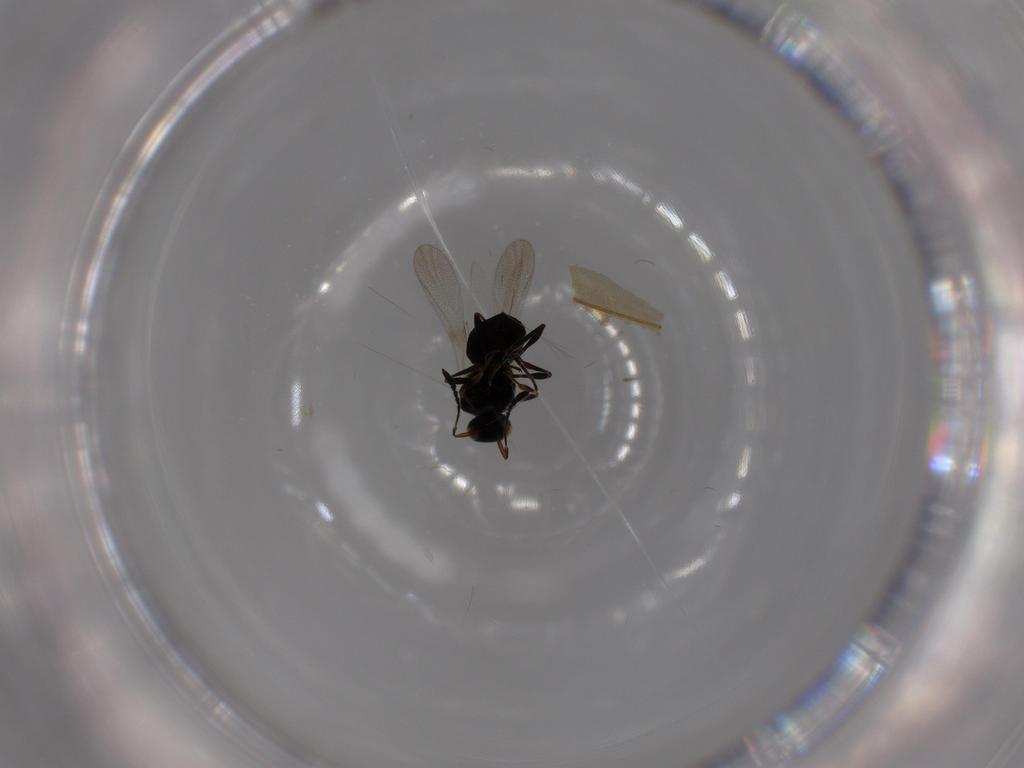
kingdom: Animalia
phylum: Arthropoda
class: Insecta
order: Hymenoptera
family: Platygastridae
